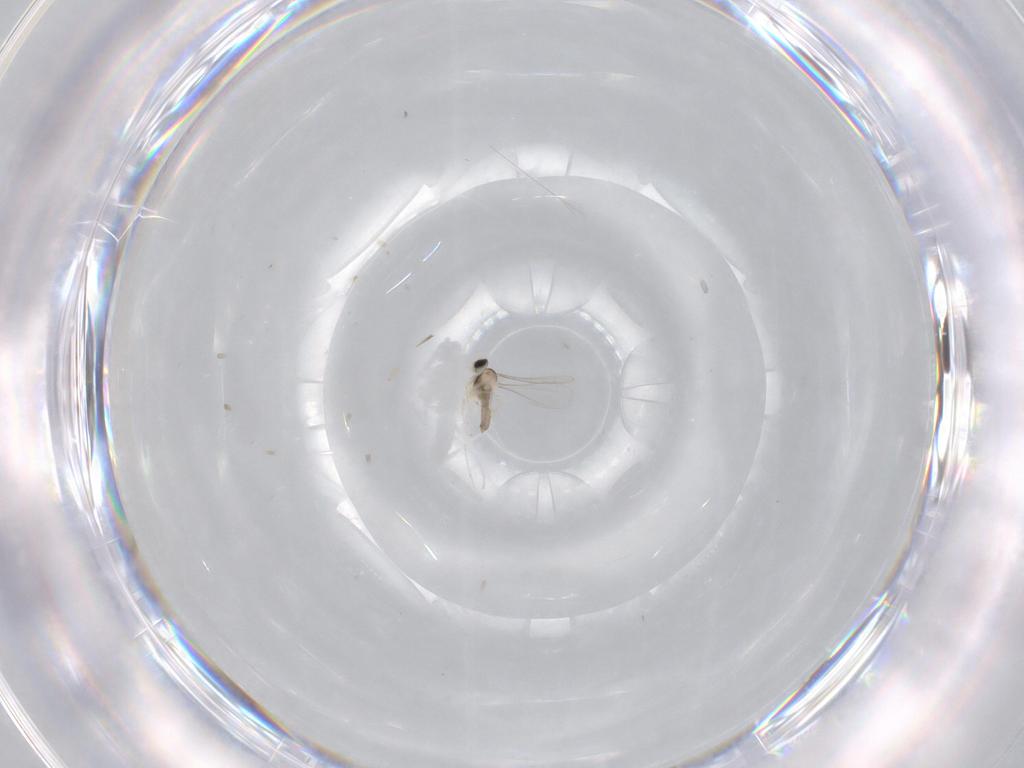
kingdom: Animalia
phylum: Arthropoda
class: Insecta
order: Diptera
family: Cecidomyiidae
